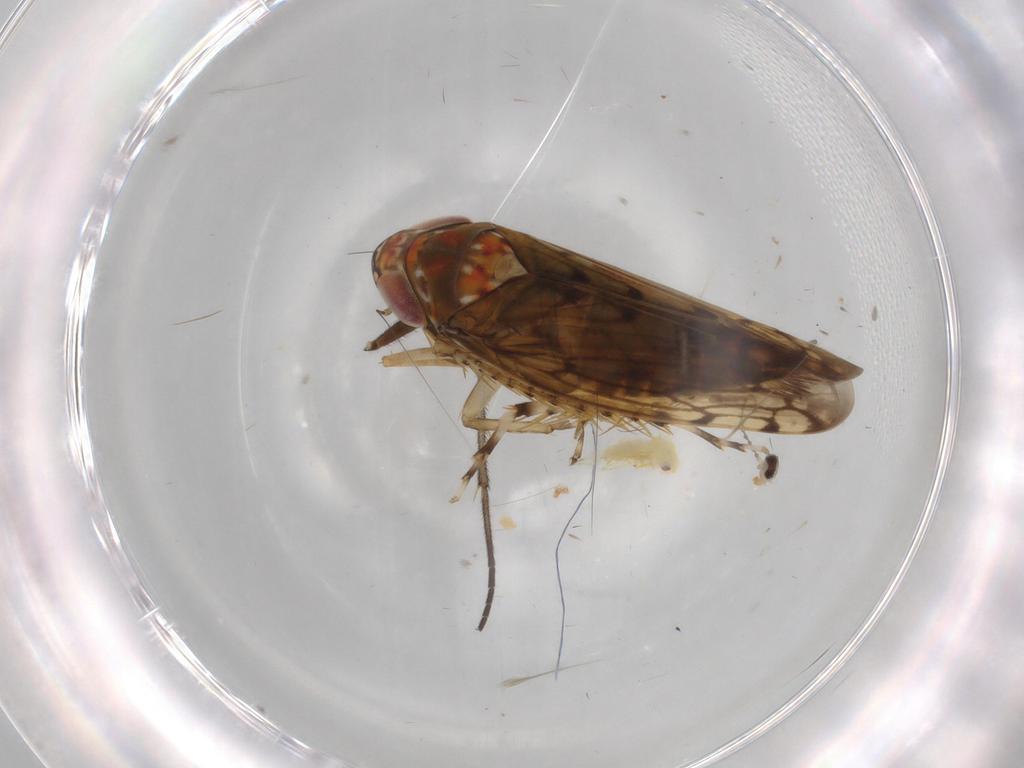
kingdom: Animalia
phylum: Arthropoda
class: Insecta
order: Hemiptera
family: Cicadellidae
